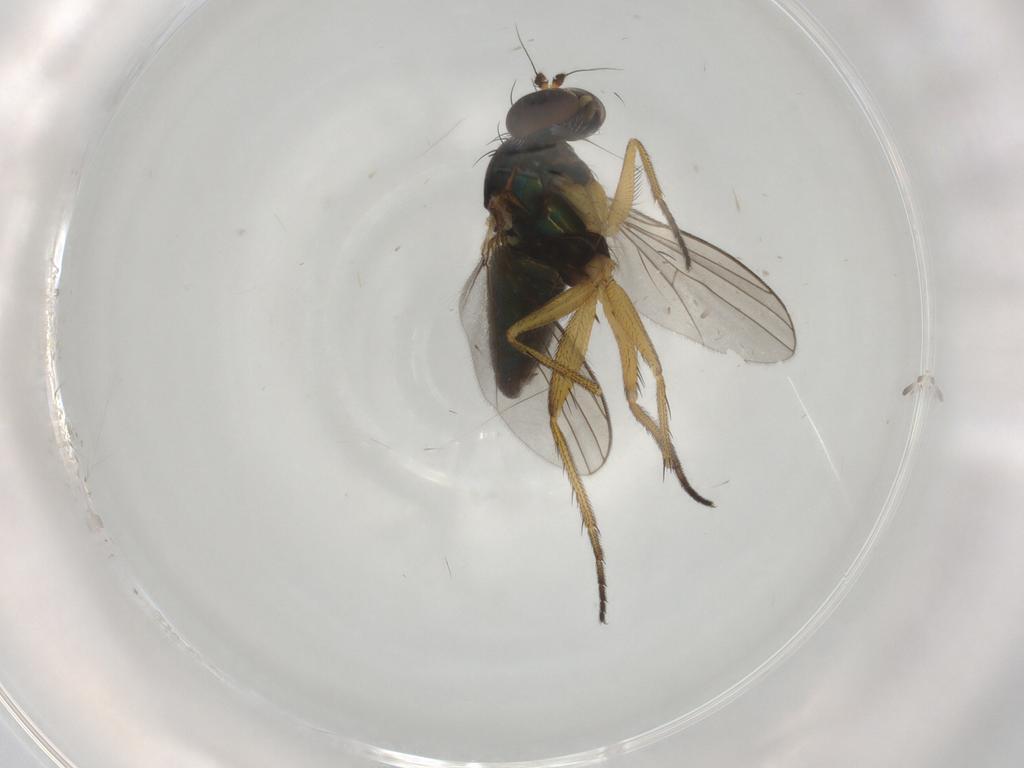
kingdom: Animalia
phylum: Arthropoda
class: Insecta
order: Diptera
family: Dolichopodidae
